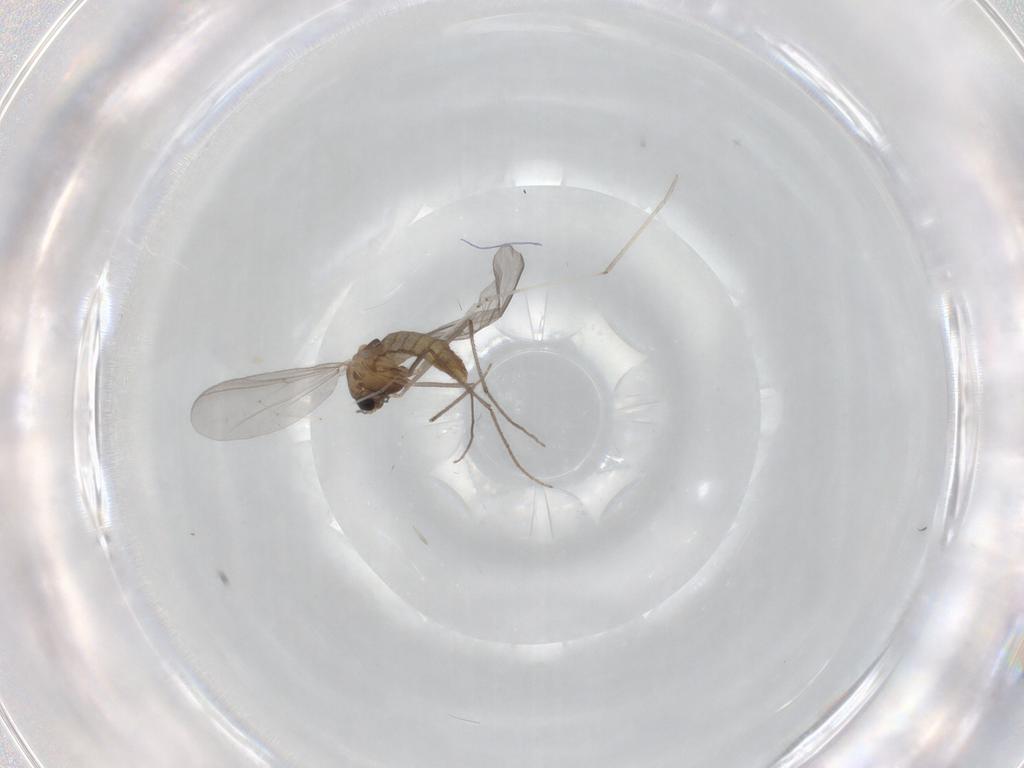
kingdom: Animalia
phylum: Arthropoda
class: Insecta
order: Diptera
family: Chironomidae
